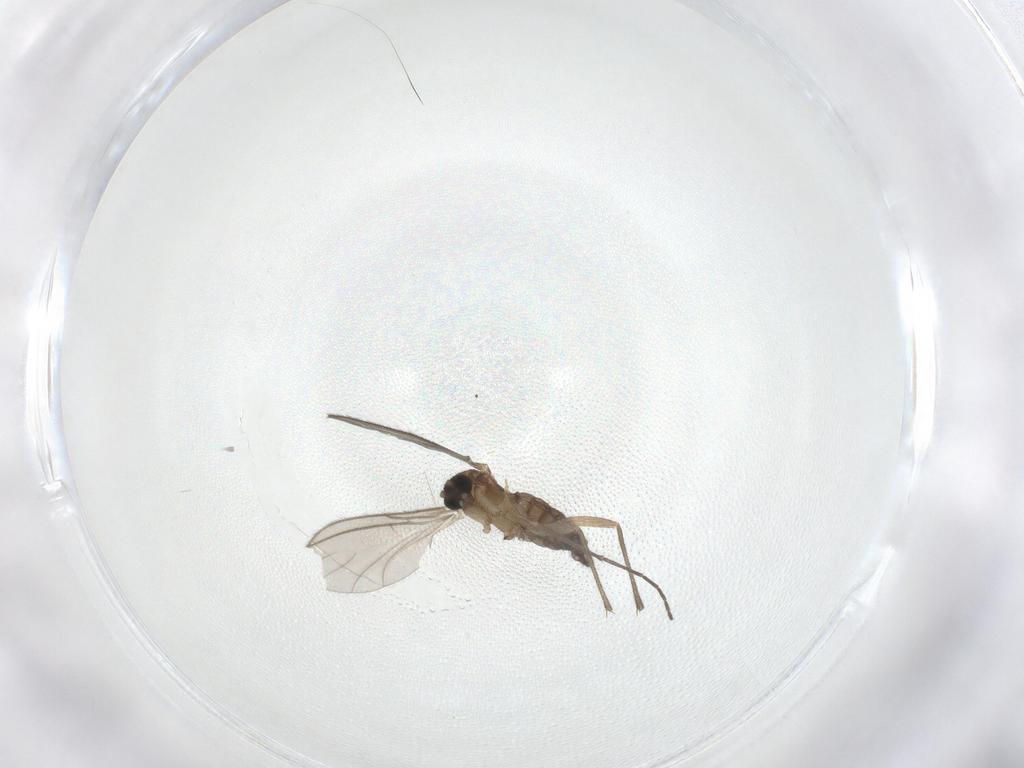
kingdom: Animalia
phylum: Arthropoda
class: Insecta
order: Diptera
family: Sciaridae
